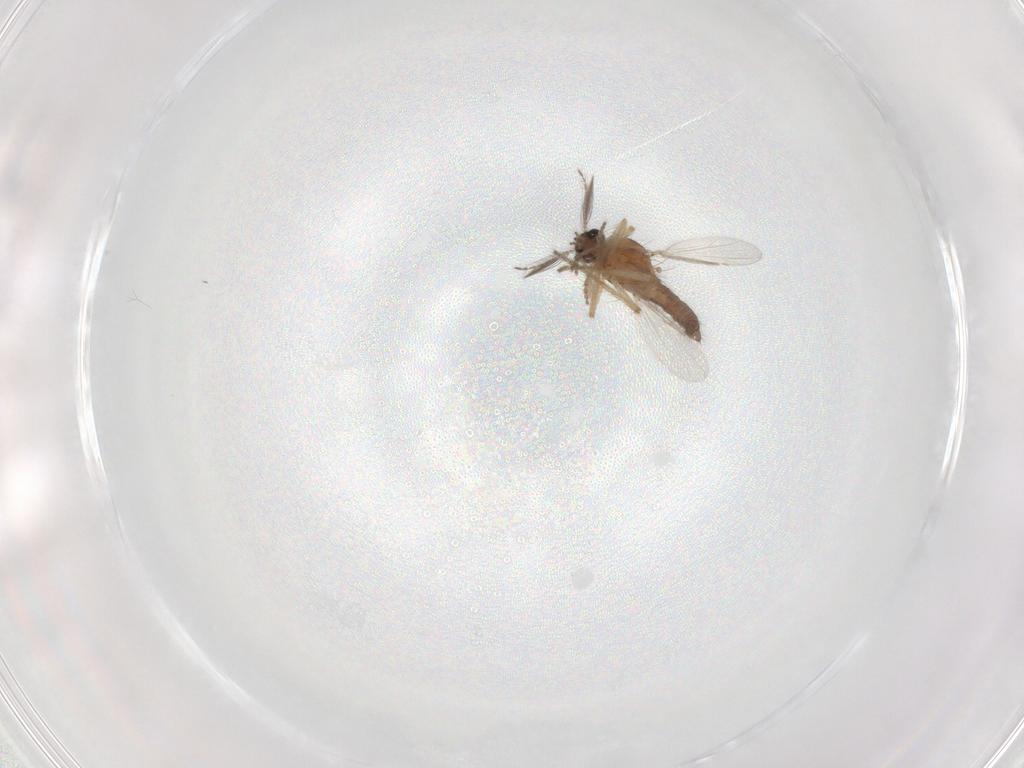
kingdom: Animalia
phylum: Arthropoda
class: Insecta
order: Diptera
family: Ceratopogonidae
